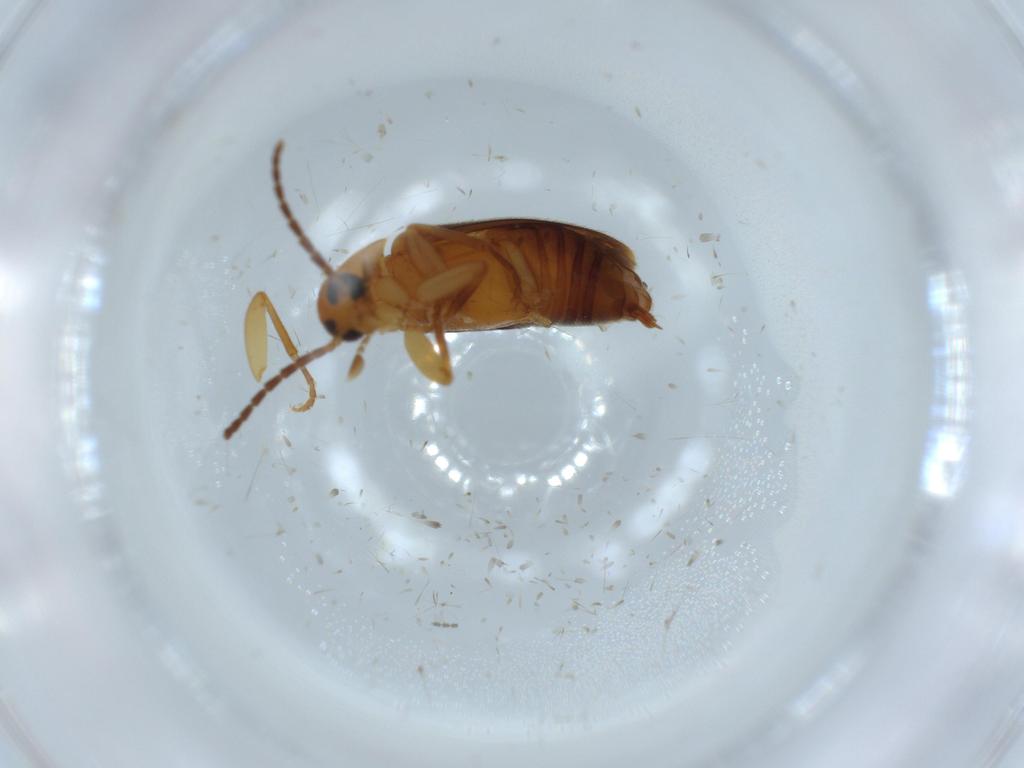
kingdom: Animalia
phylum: Arthropoda
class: Insecta
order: Coleoptera
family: Scraptiidae
